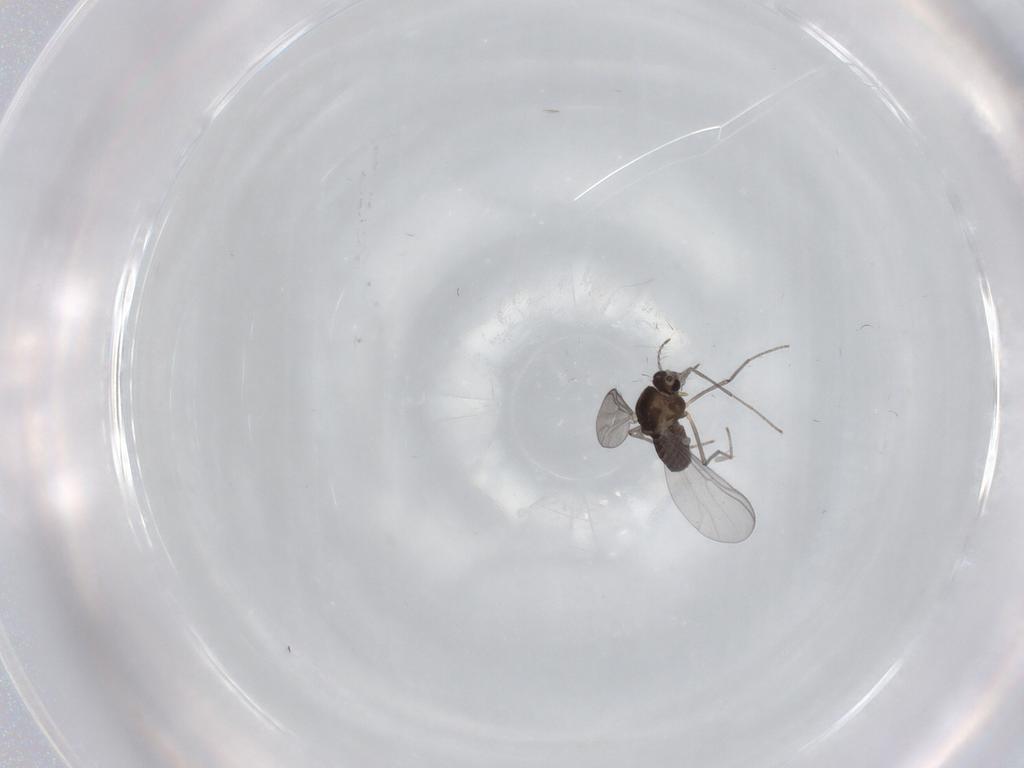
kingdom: Animalia
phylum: Arthropoda
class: Insecta
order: Diptera
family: Chironomidae
